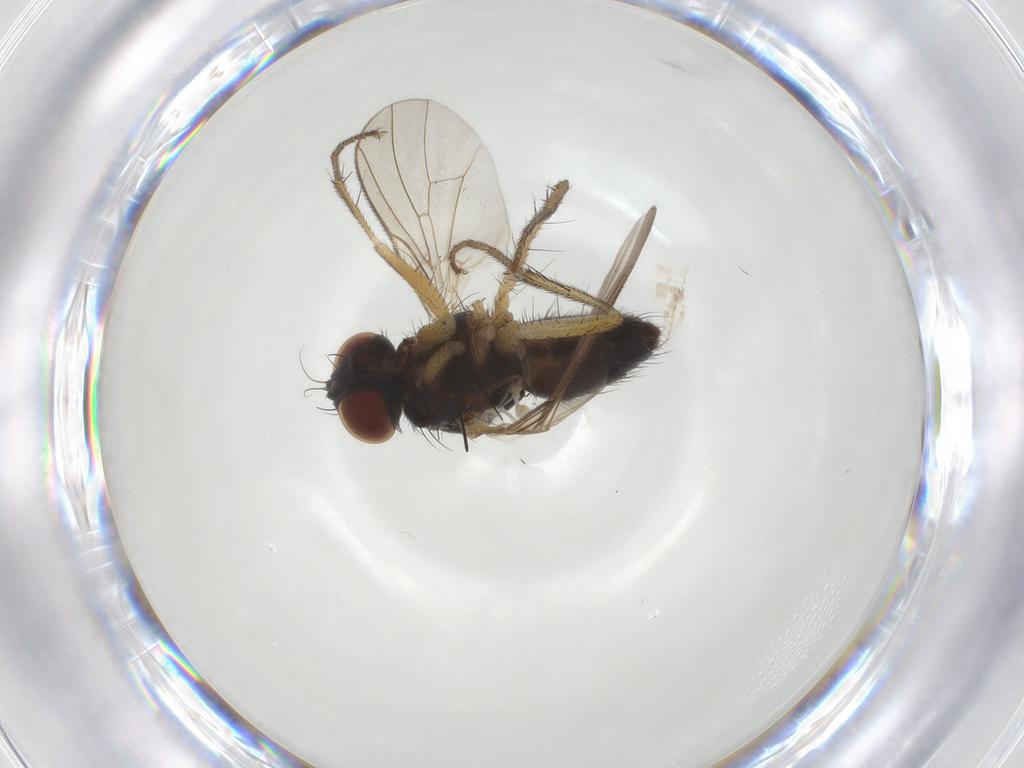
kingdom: Animalia
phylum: Arthropoda
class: Insecta
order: Diptera
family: Muscidae
